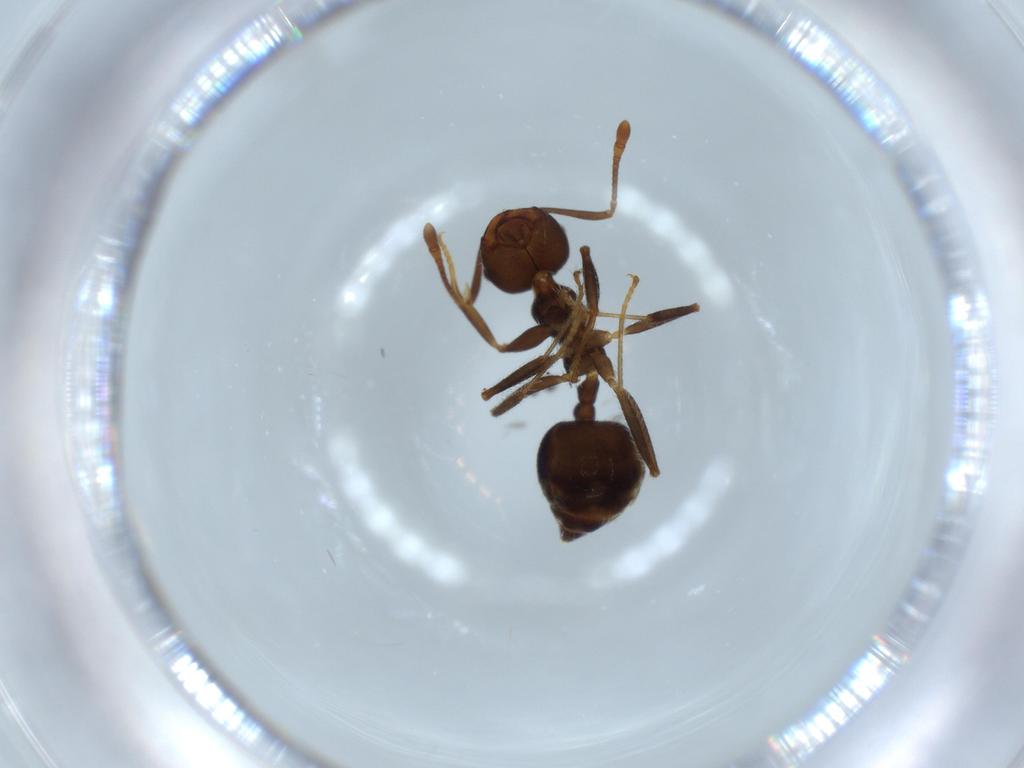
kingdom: Animalia
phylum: Arthropoda
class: Insecta
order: Hymenoptera
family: Formicidae
